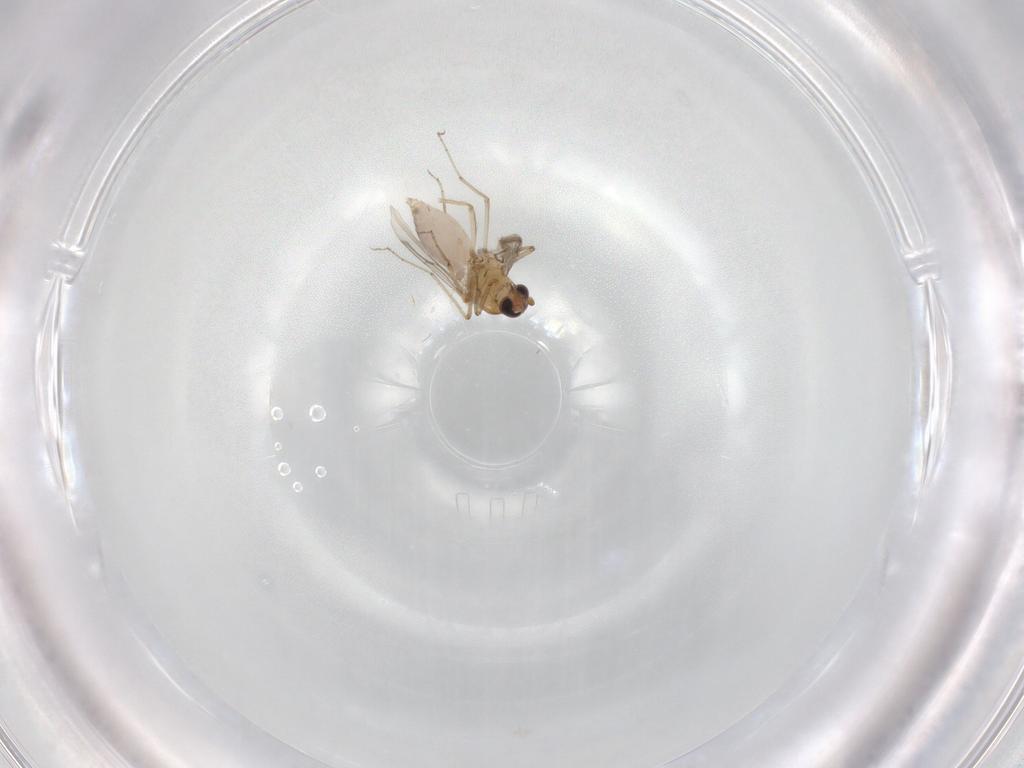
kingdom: Animalia
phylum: Arthropoda
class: Insecta
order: Diptera
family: Ceratopogonidae
